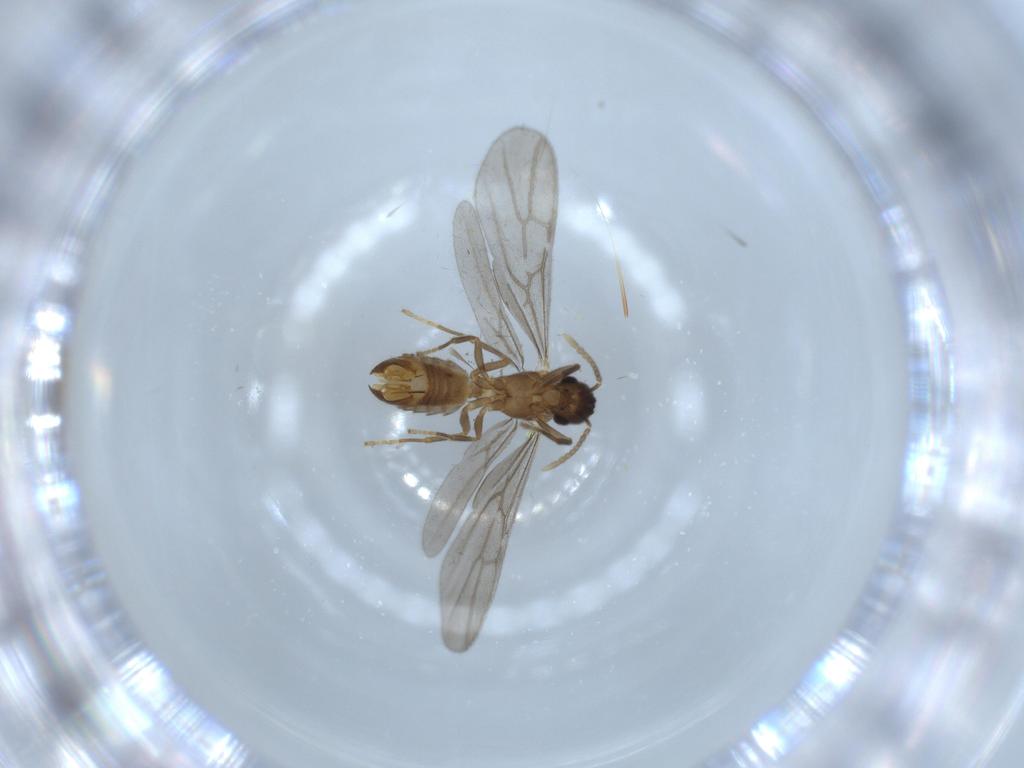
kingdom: Animalia
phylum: Arthropoda
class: Insecta
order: Hymenoptera
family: Formicidae
